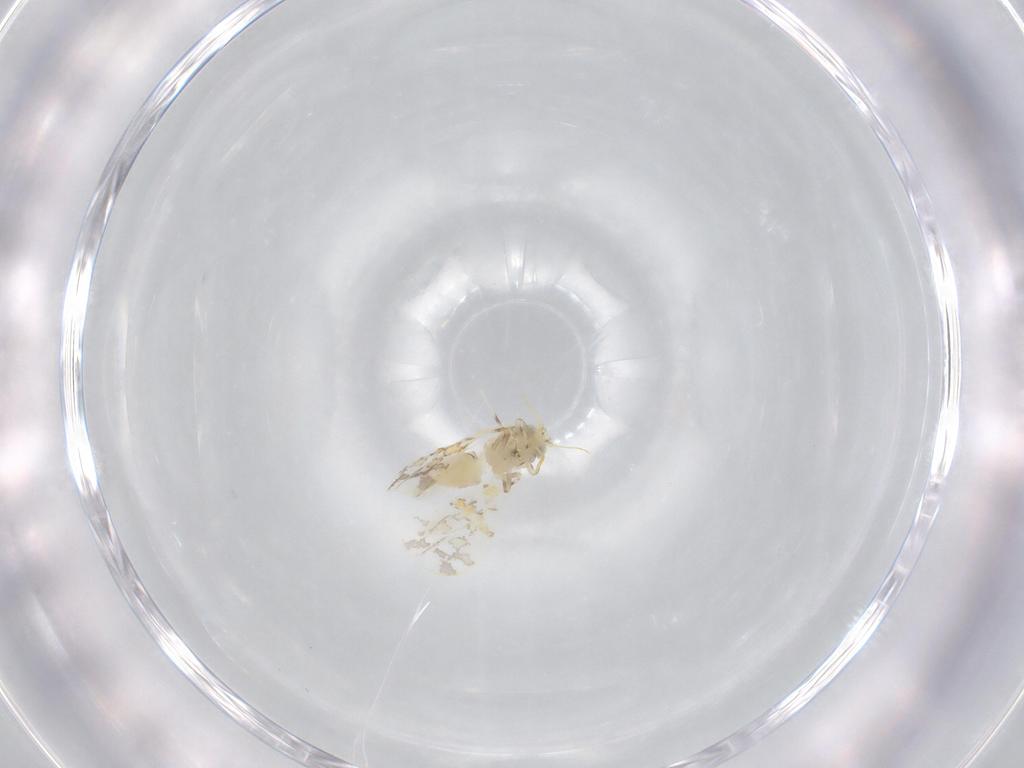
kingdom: Animalia
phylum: Arthropoda
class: Insecta
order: Hemiptera
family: Aleyrodidae
